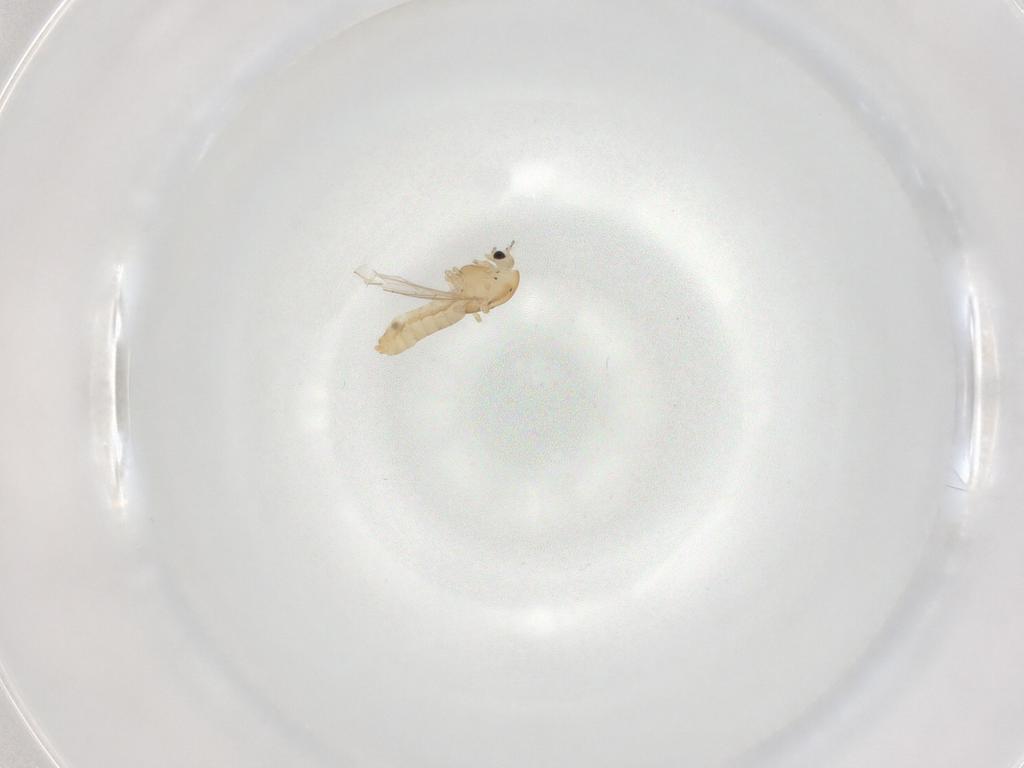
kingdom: Animalia
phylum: Arthropoda
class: Insecta
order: Diptera
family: Chironomidae
